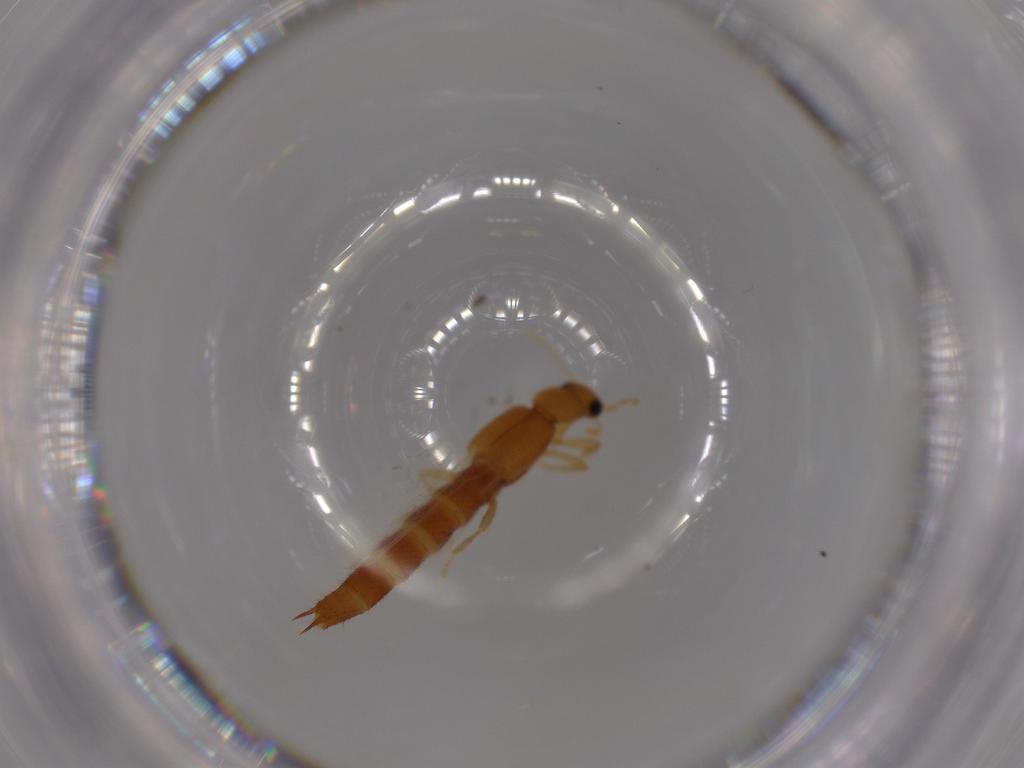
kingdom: Animalia
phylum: Arthropoda
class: Insecta
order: Coleoptera
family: Staphylinidae
